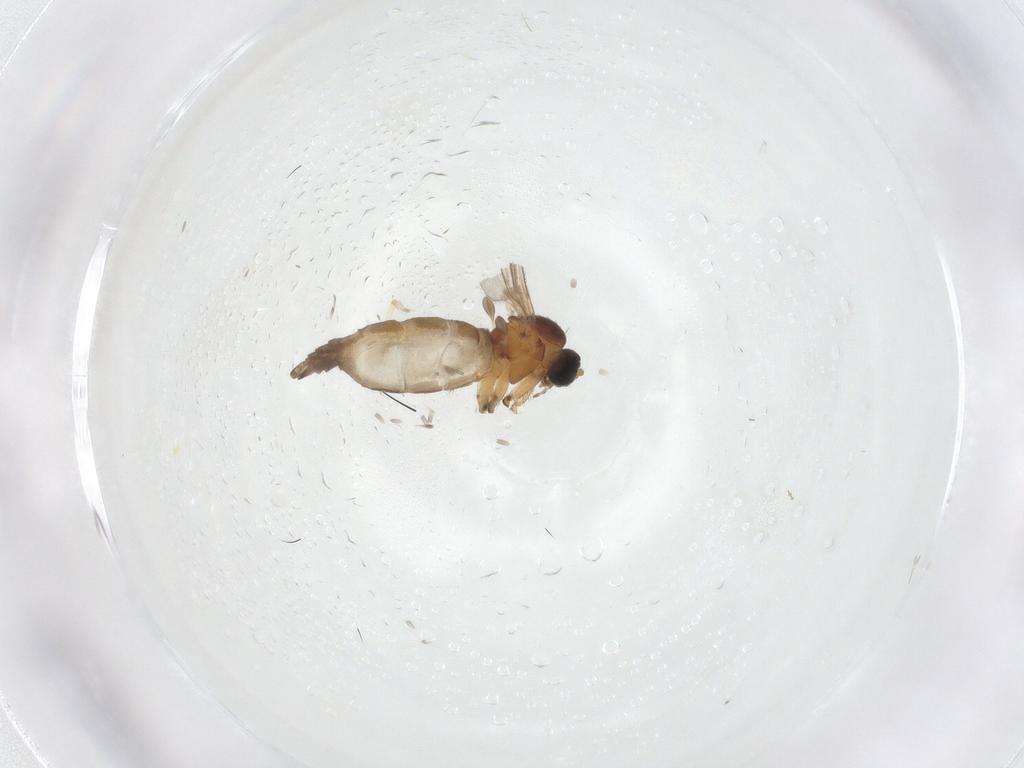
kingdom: Animalia
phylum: Arthropoda
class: Insecta
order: Diptera
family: Sciaridae
